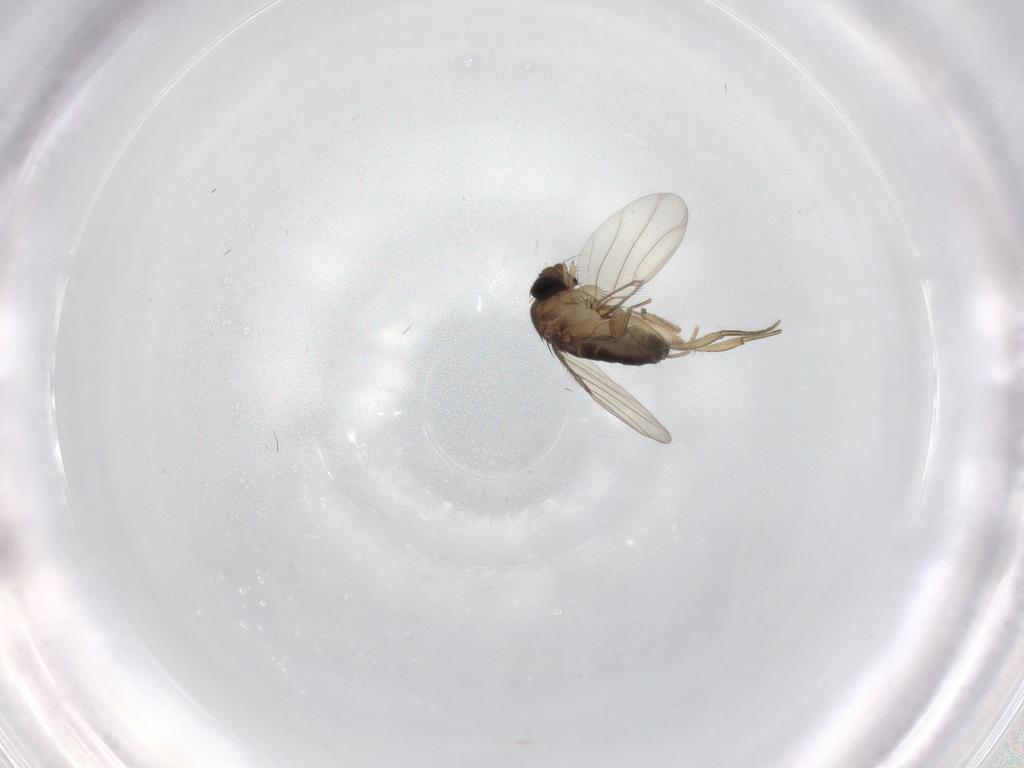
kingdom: Animalia
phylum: Arthropoda
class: Insecta
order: Diptera
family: Phoridae
